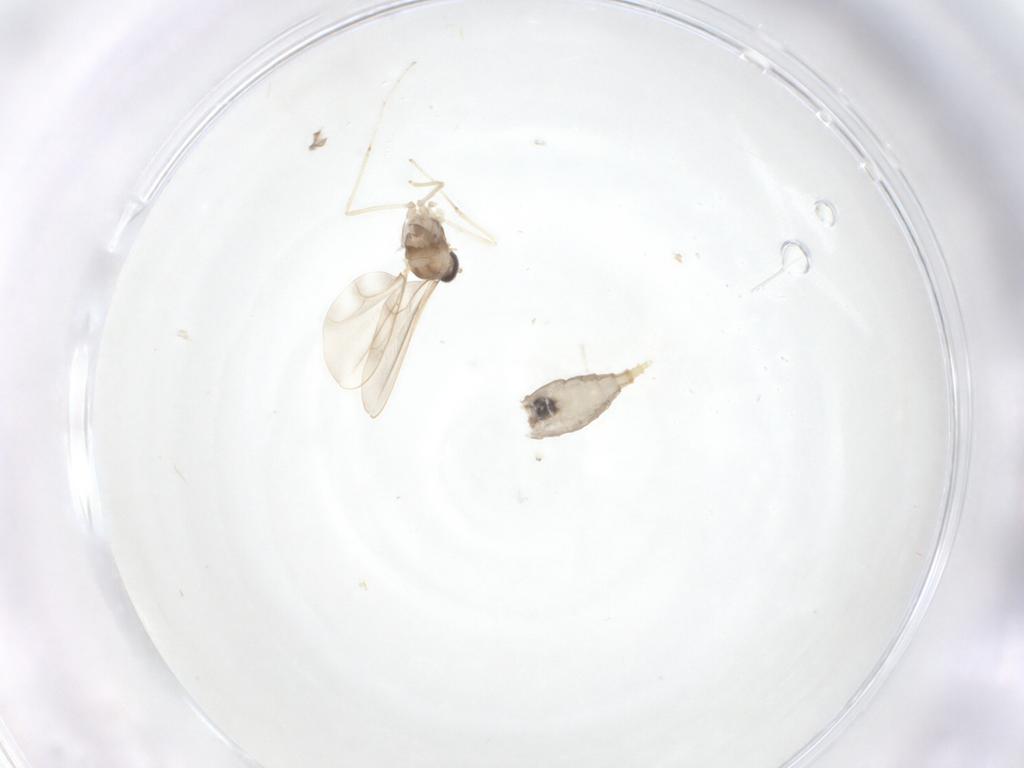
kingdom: Animalia
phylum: Arthropoda
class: Insecta
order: Diptera
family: Cecidomyiidae
